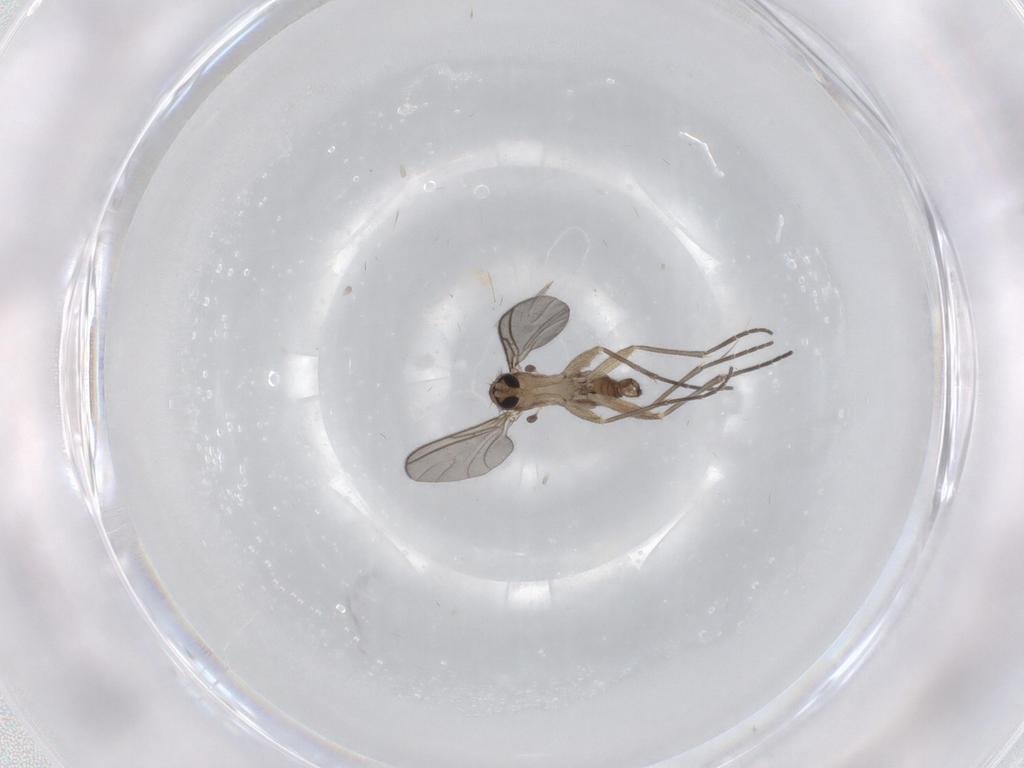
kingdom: Animalia
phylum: Arthropoda
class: Insecta
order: Diptera
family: Sciaridae
